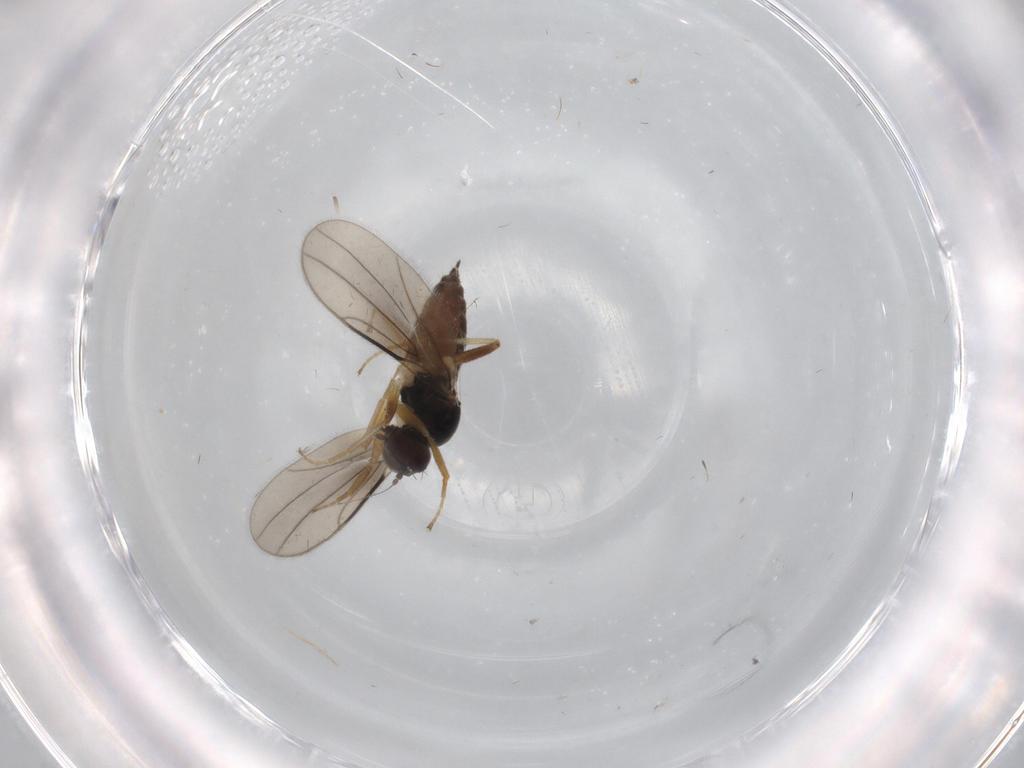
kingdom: Animalia
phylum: Arthropoda
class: Insecta
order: Diptera
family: Hybotidae
